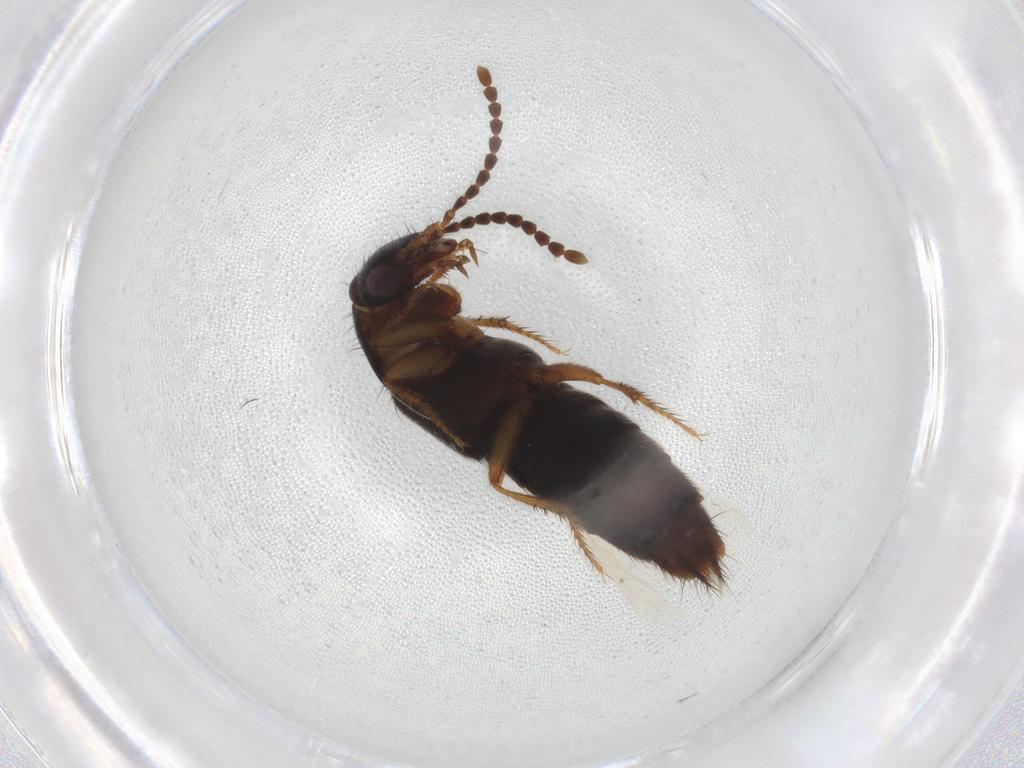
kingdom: Animalia
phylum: Arthropoda
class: Insecta
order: Coleoptera
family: Staphylinidae
